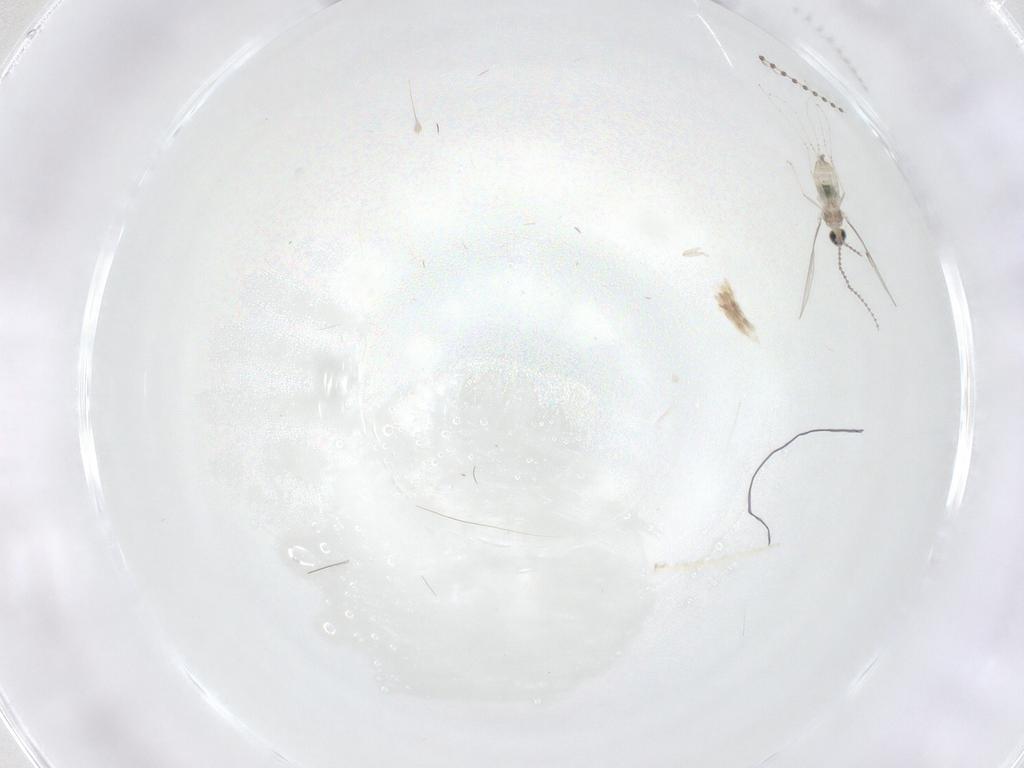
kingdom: Animalia
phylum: Arthropoda
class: Insecta
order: Diptera
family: Cecidomyiidae
